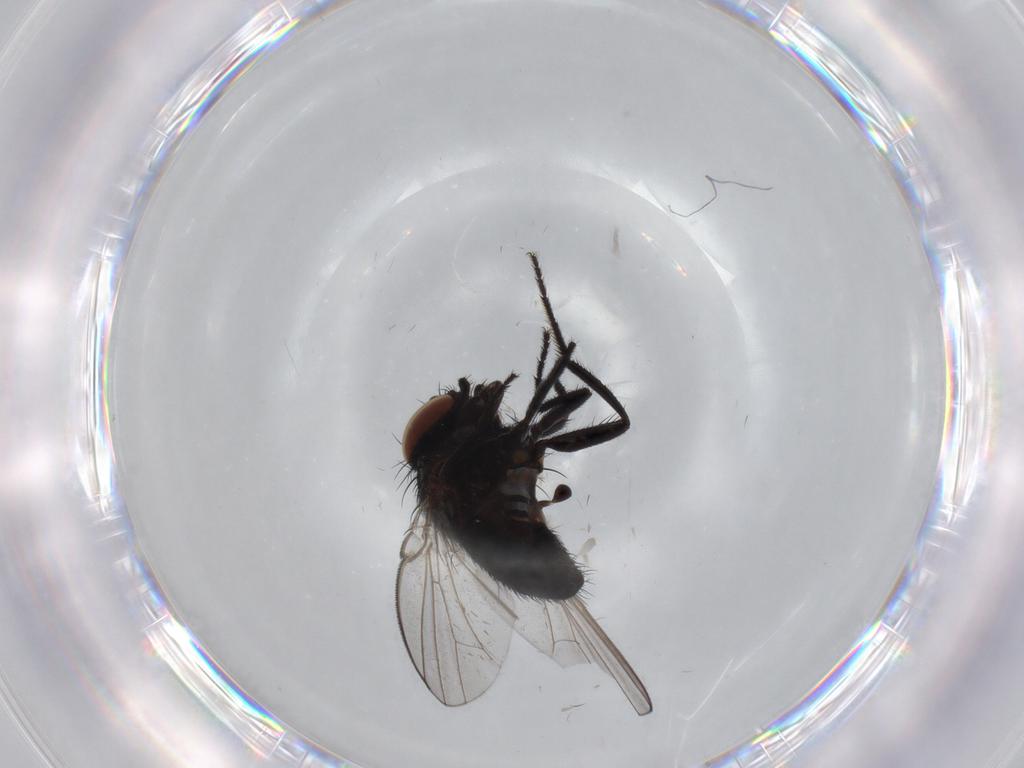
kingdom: Animalia
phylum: Arthropoda
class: Insecta
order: Diptera
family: Milichiidae
